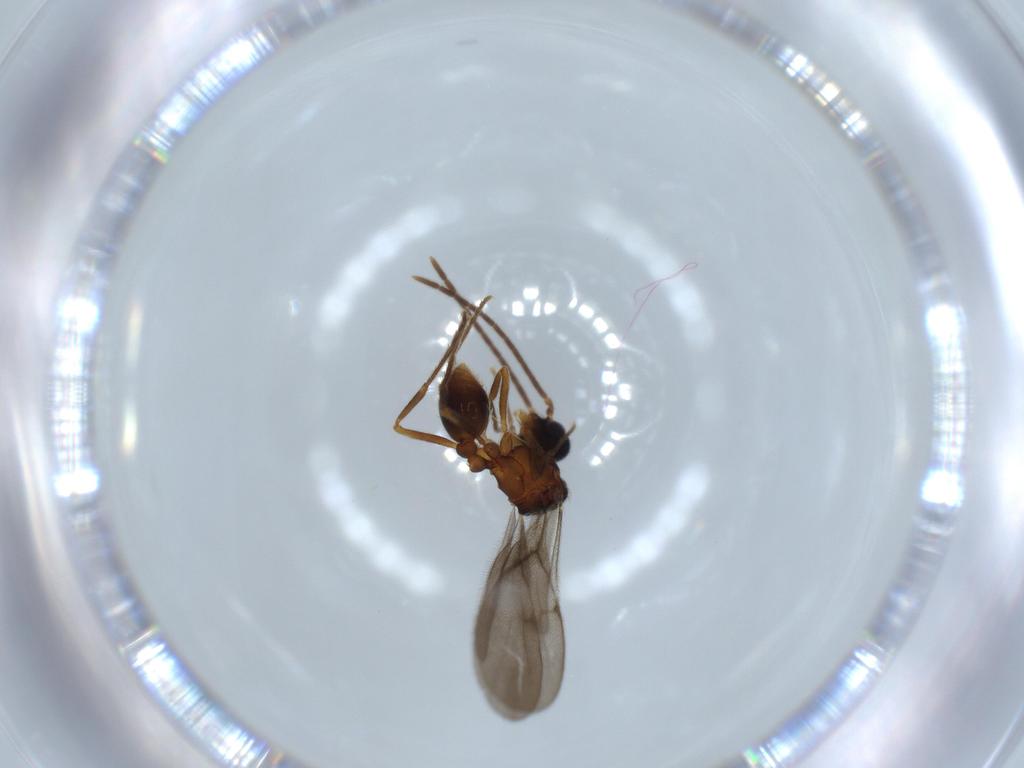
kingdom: Animalia
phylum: Arthropoda
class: Insecta
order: Hymenoptera
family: Formicidae
